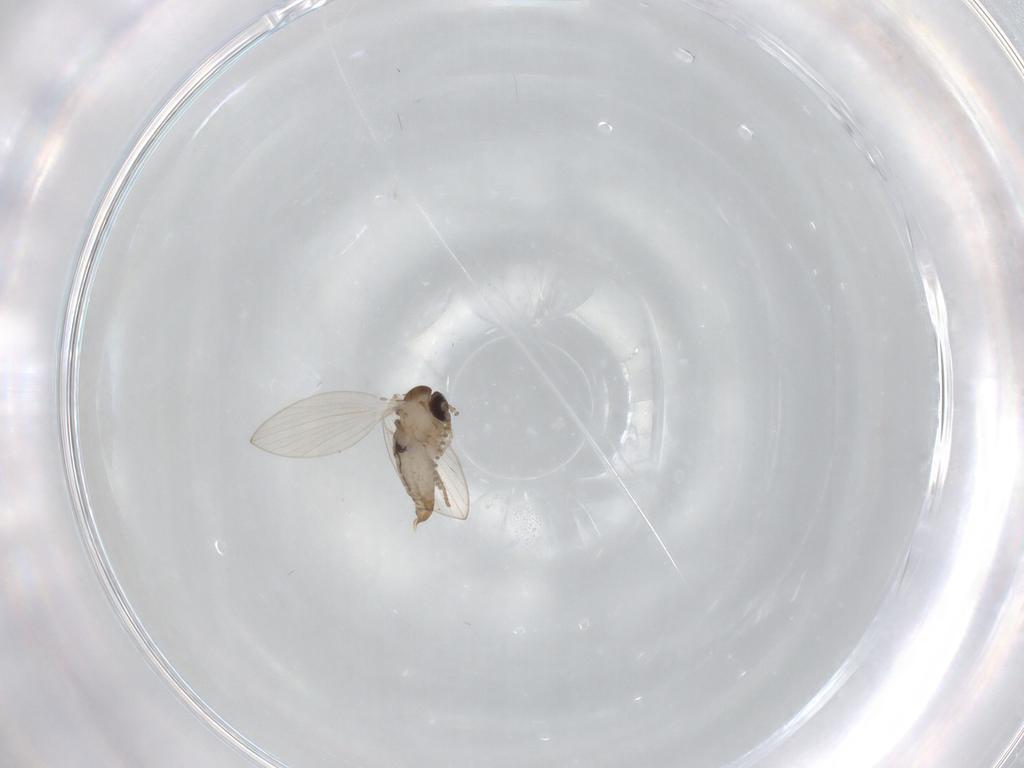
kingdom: Animalia
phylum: Arthropoda
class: Insecta
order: Diptera
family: Psychodidae
